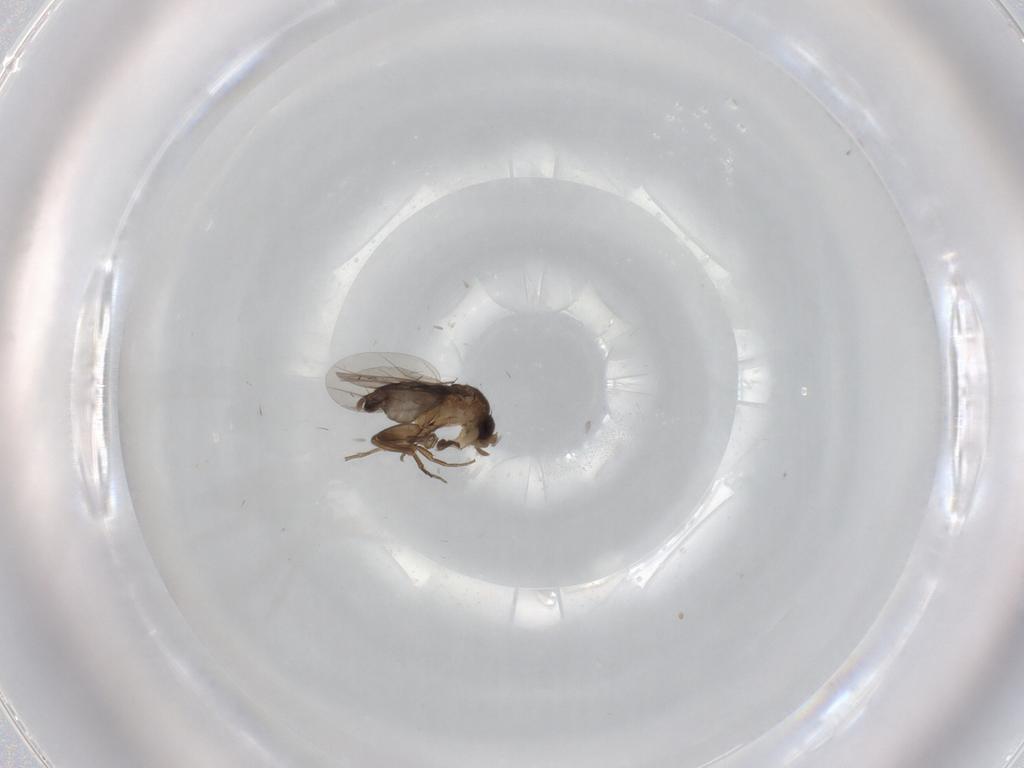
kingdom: Animalia
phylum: Arthropoda
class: Insecta
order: Diptera
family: Phoridae
